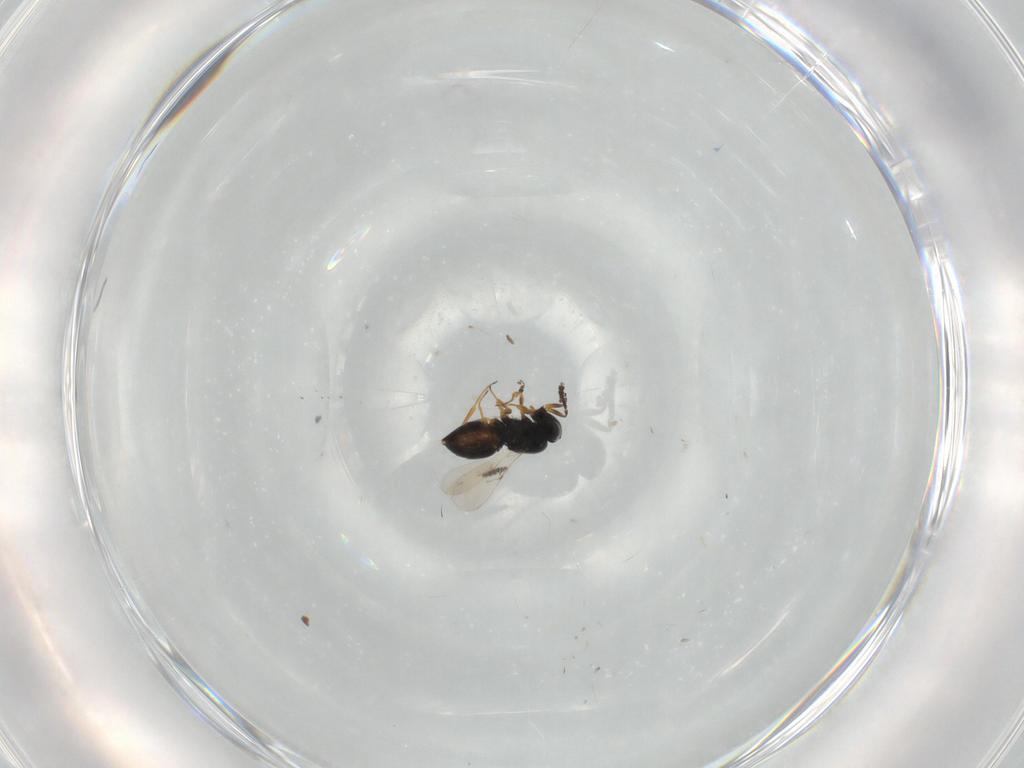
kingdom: Animalia
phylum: Arthropoda
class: Insecta
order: Hymenoptera
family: Scelionidae
